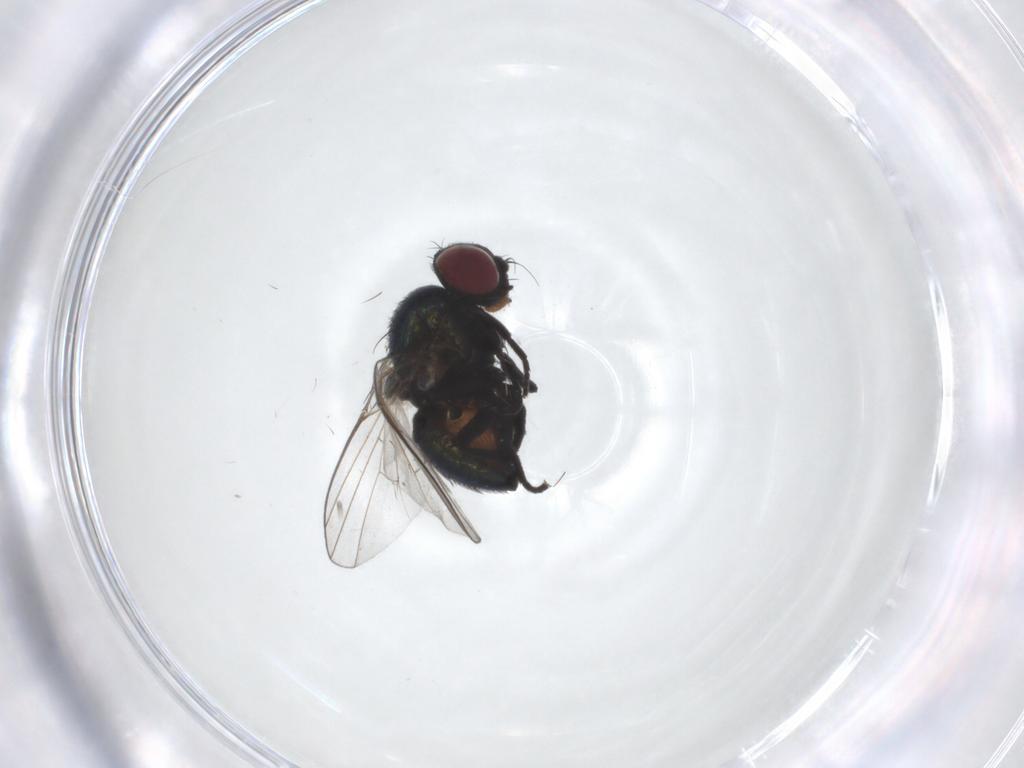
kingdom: Animalia
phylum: Arthropoda
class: Insecta
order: Diptera
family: Agromyzidae
